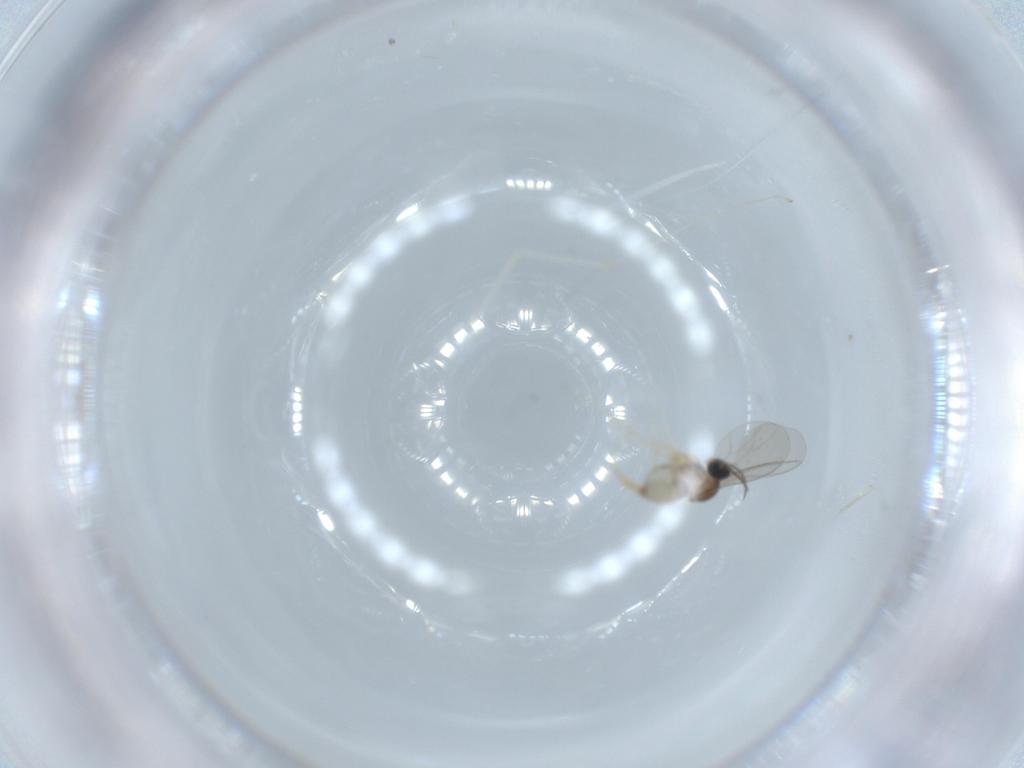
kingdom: Animalia
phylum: Arthropoda
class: Insecta
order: Diptera
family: Cecidomyiidae
